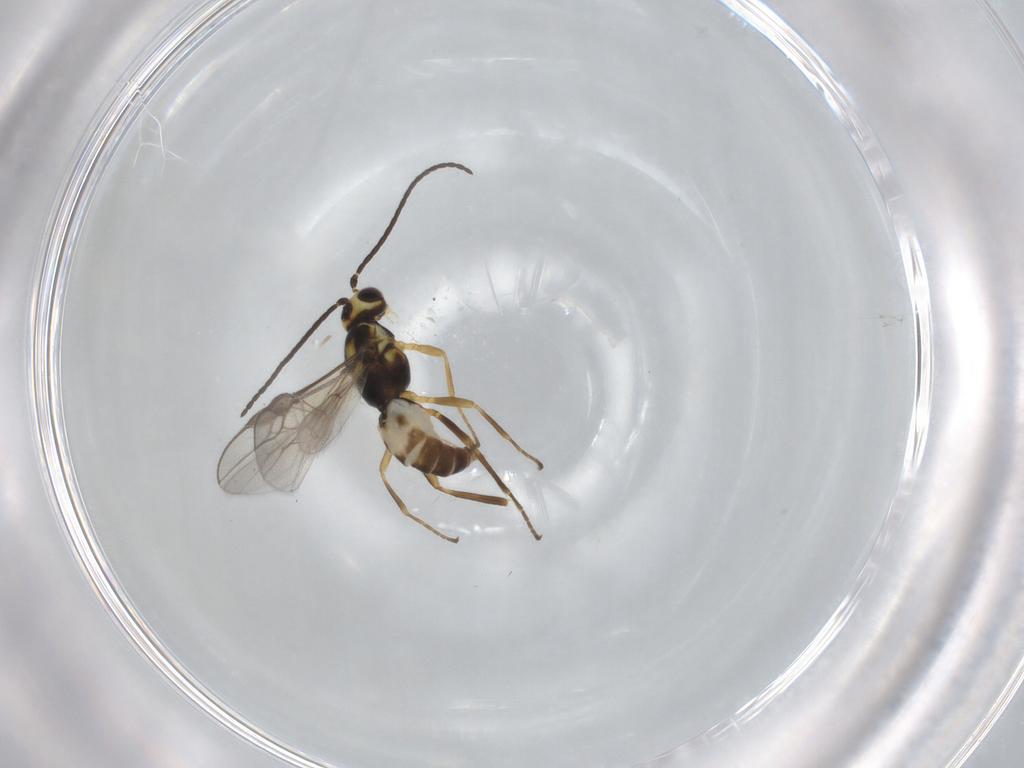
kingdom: Animalia
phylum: Arthropoda
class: Insecta
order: Hymenoptera
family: Braconidae
